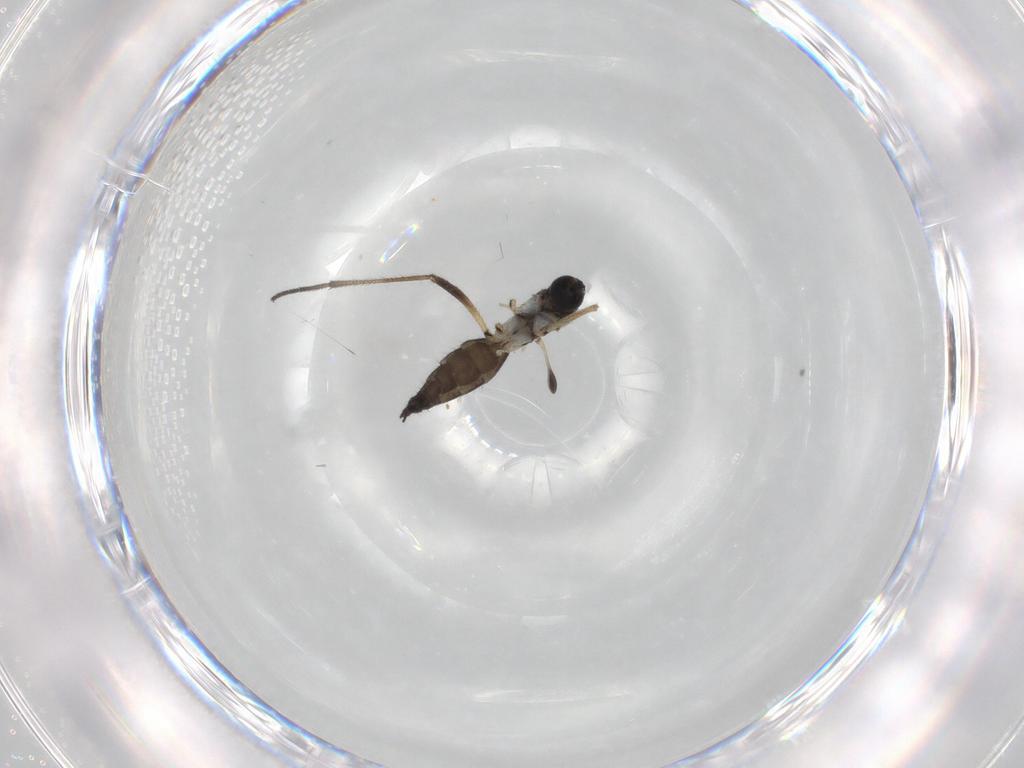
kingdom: Animalia
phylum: Arthropoda
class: Insecta
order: Diptera
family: Sciaridae
